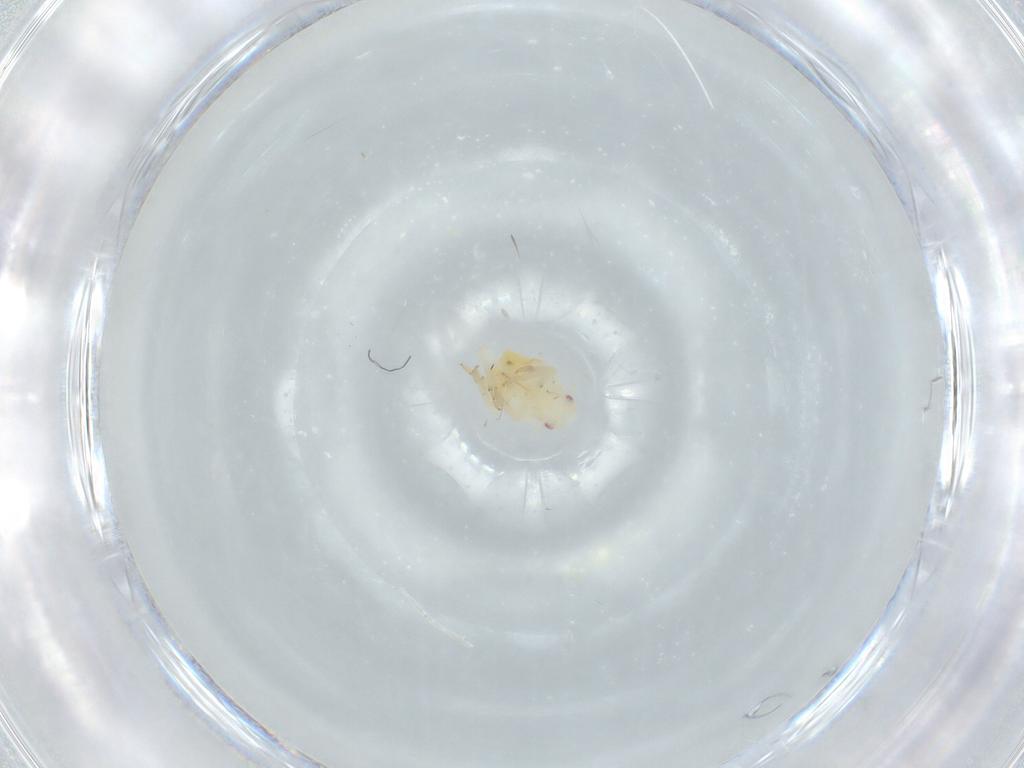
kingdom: Animalia
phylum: Arthropoda
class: Insecta
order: Hemiptera
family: Flatidae
